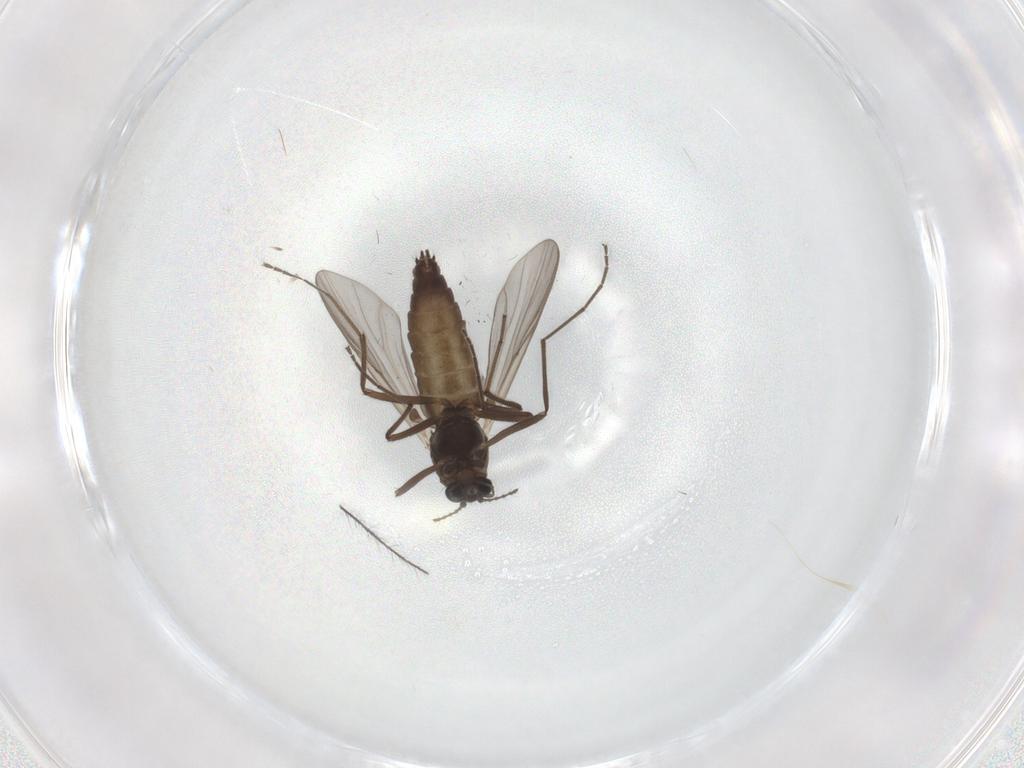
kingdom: Animalia
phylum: Arthropoda
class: Insecta
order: Diptera
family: Chironomidae
